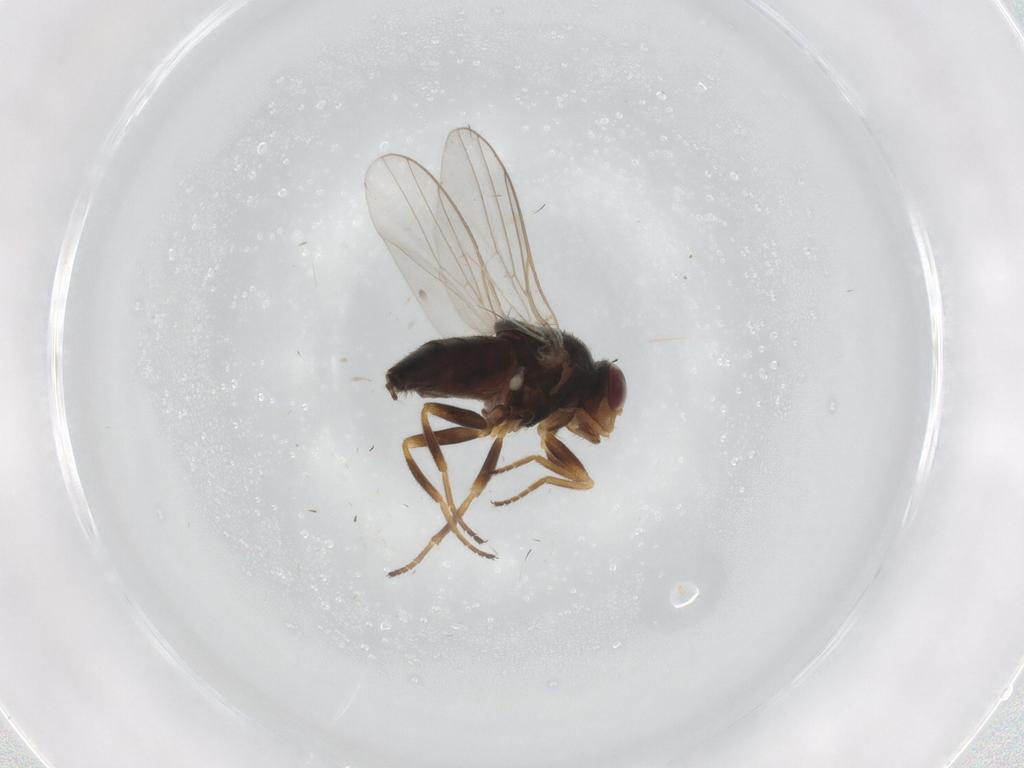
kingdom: Animalia
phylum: Arthropoda
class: Insecta
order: Diptera
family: Chloropidae
